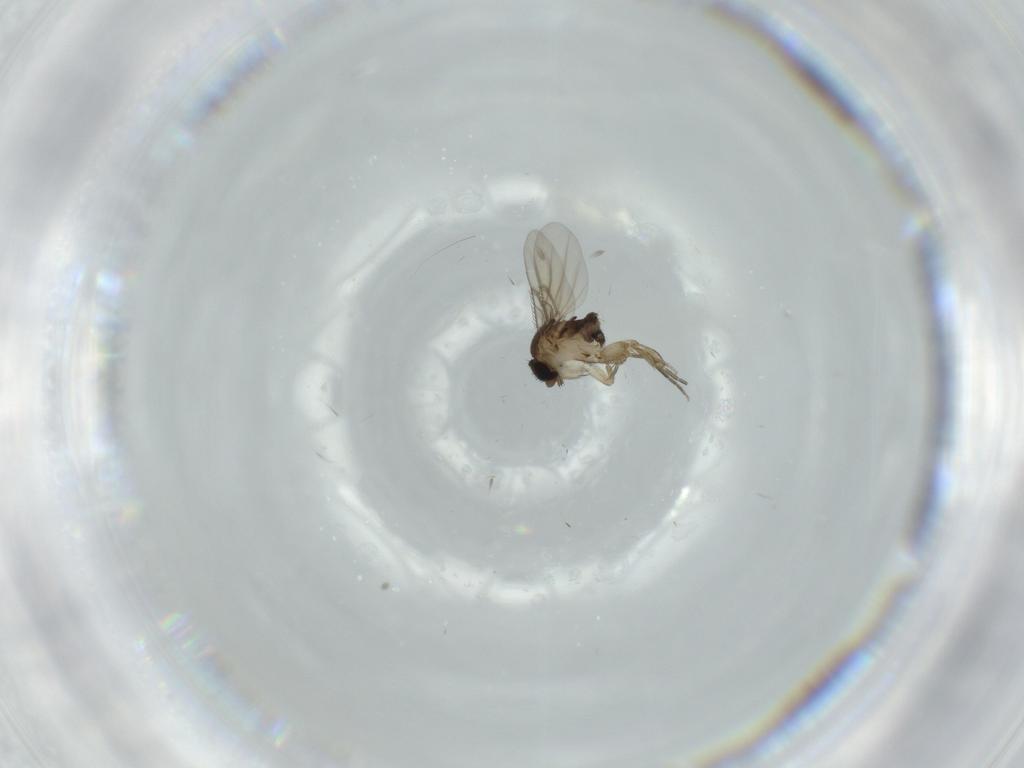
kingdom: Animalia
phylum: Arthropoda
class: Insecta
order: Diptera
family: Phoridae
